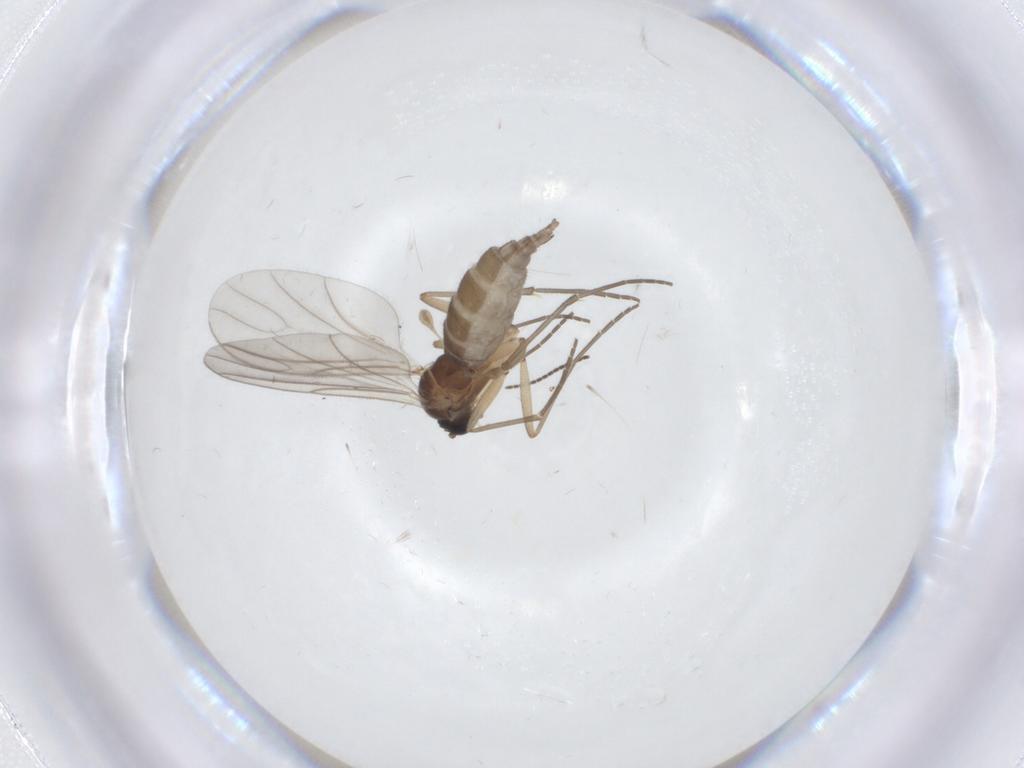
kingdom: Animalia
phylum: Arthropoda
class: Insecta
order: Diptera
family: Sciaridae
